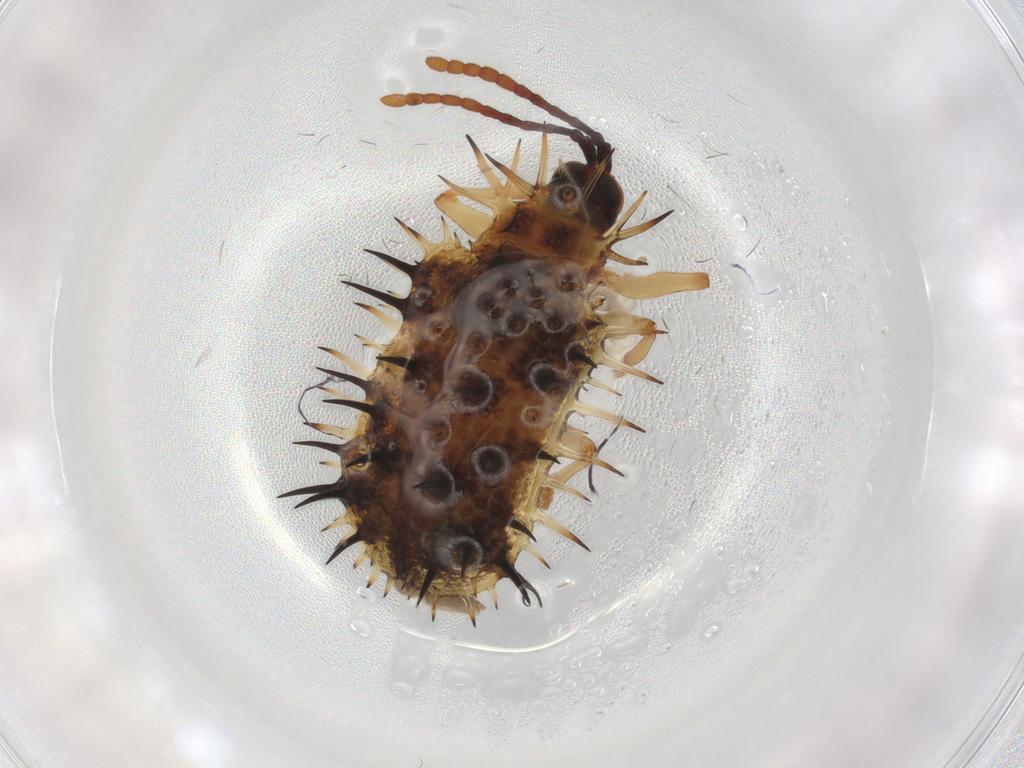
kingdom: Animalia
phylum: Arthropoda
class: Insecta
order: Coleoptera
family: Chrysomelidae
